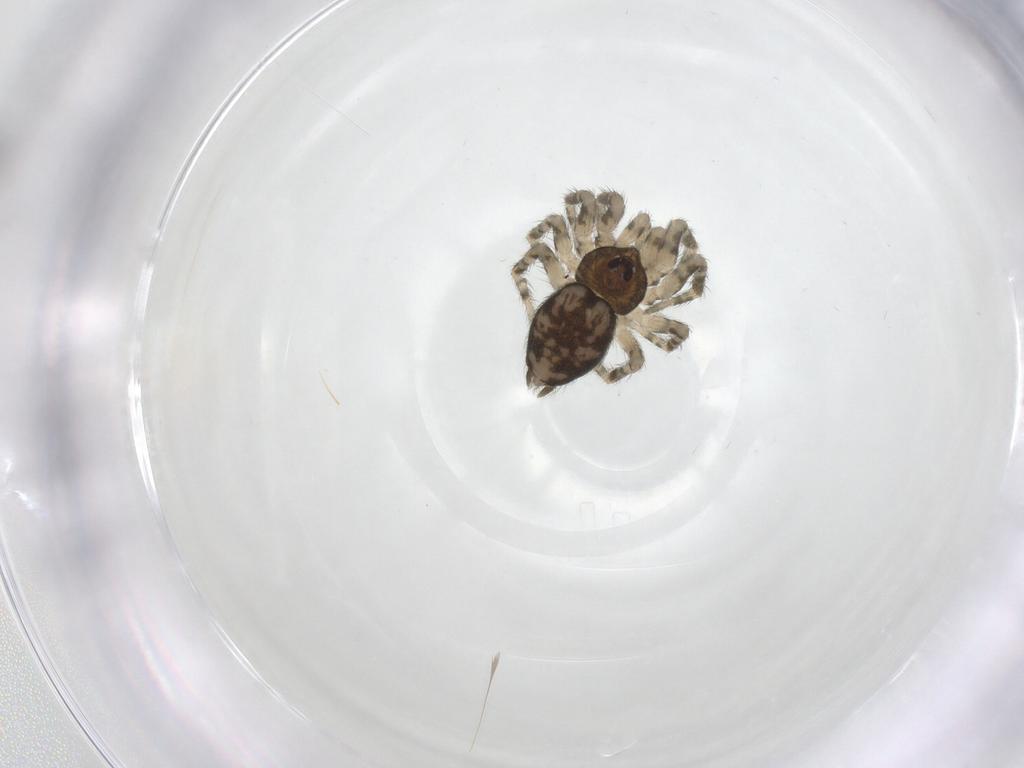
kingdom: Animalia
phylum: Arthropoda
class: Arachnida
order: Araneae
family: Oecobiidae
